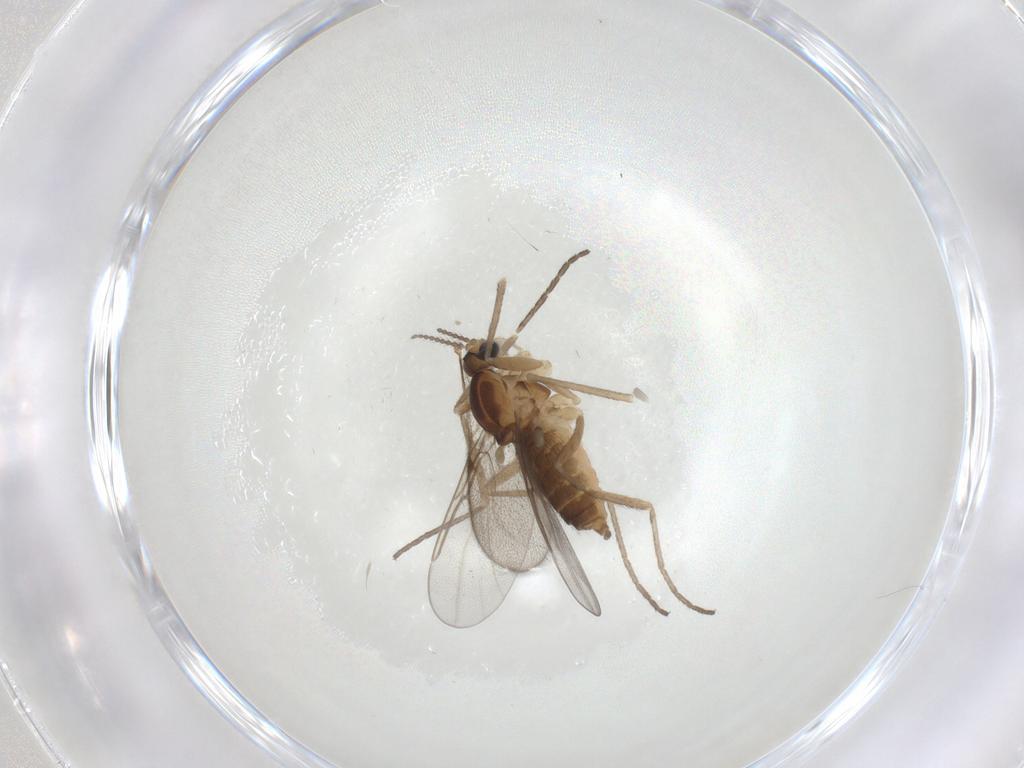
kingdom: Animalia
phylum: Arthropoda
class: Insecta
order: Diptera
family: Cecidomyiidae
